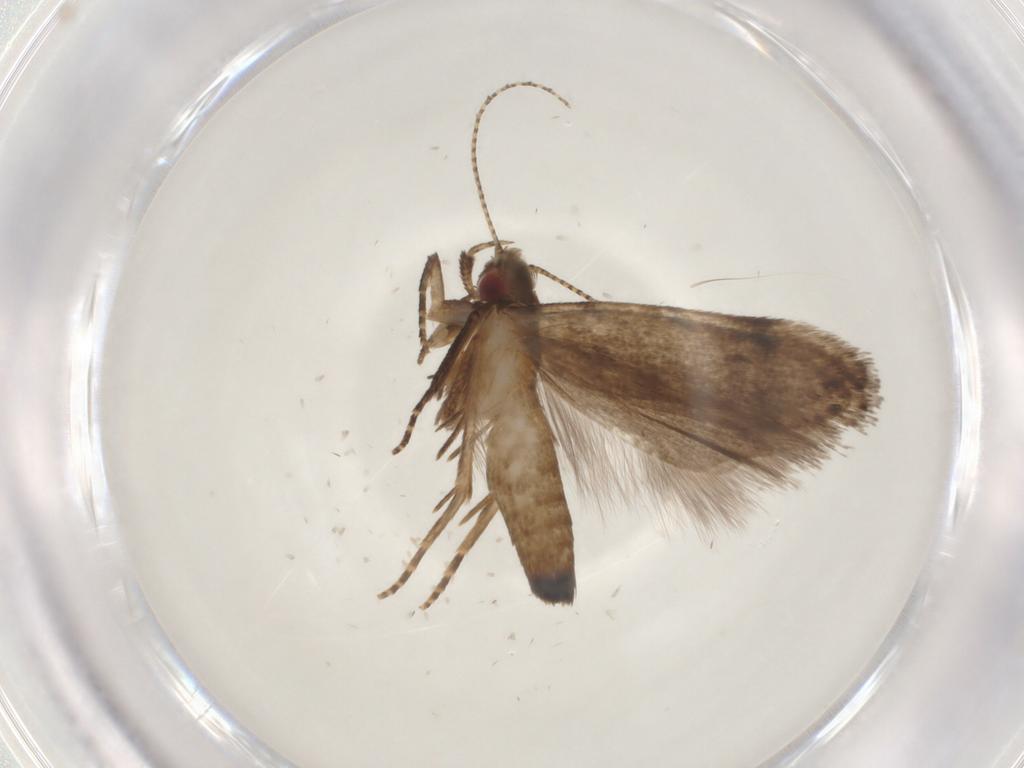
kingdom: Animalia
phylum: Arthropoda
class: Insecta
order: Lepidoptera
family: Gelechiidae
